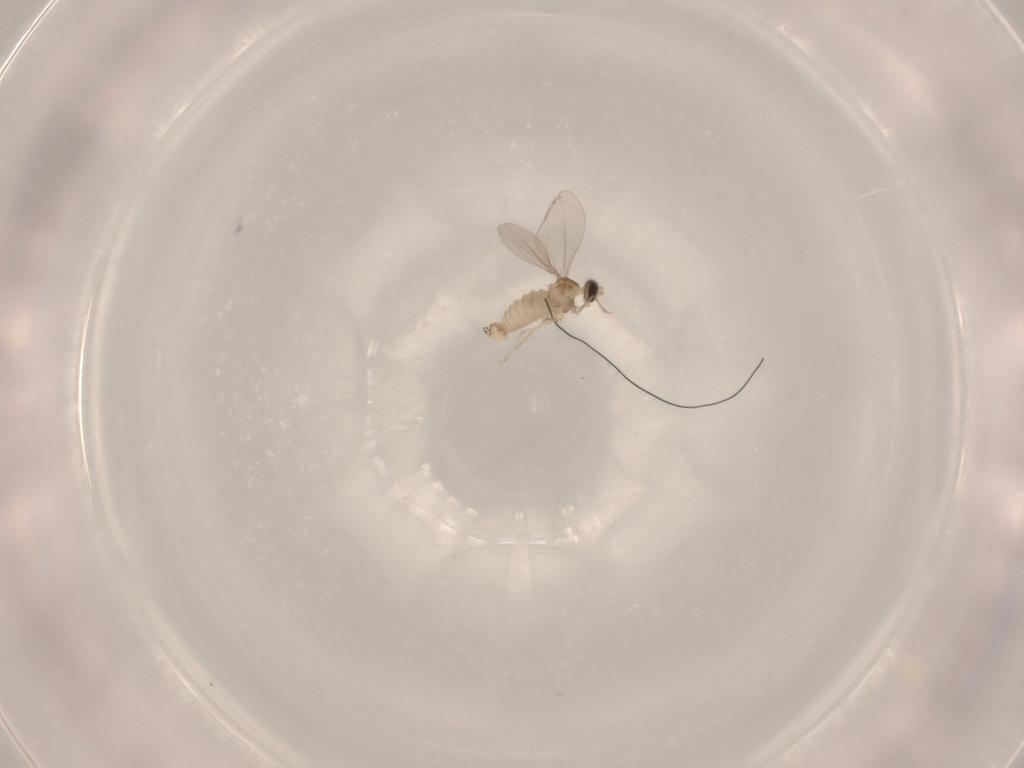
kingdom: Animalia
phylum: Arthropoda
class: Insecta
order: Diptera
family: Cecidomyiidae
